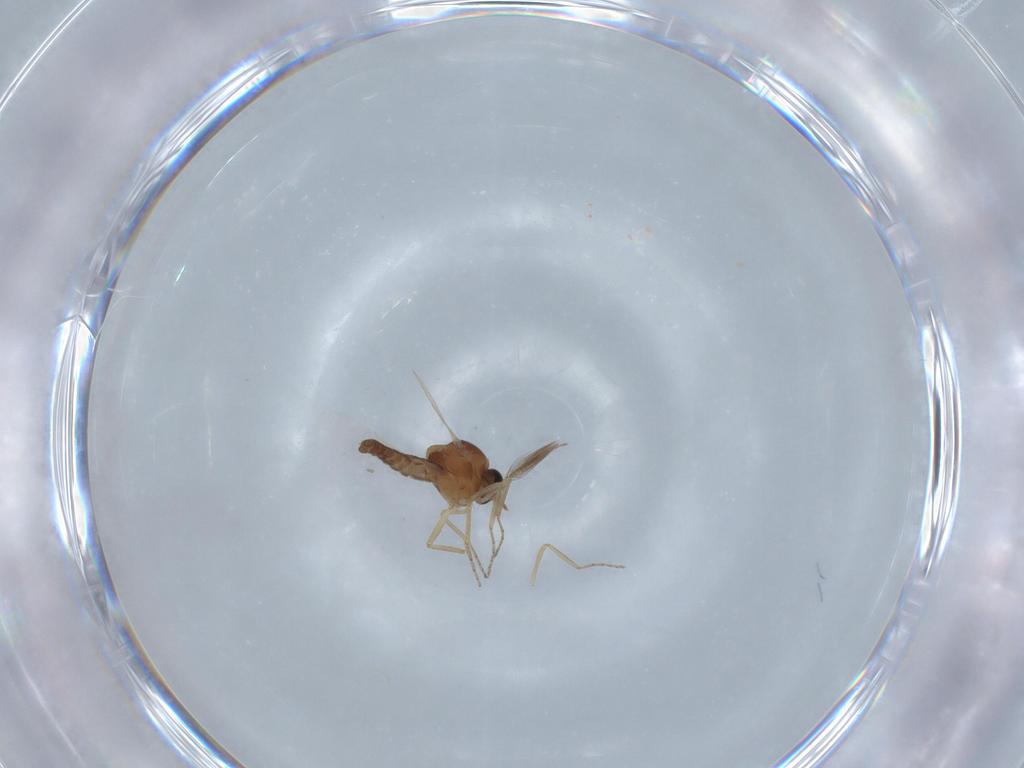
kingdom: Animalia
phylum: Arthropoda
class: Insecta
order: Diptera
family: Ceratopogonidae
